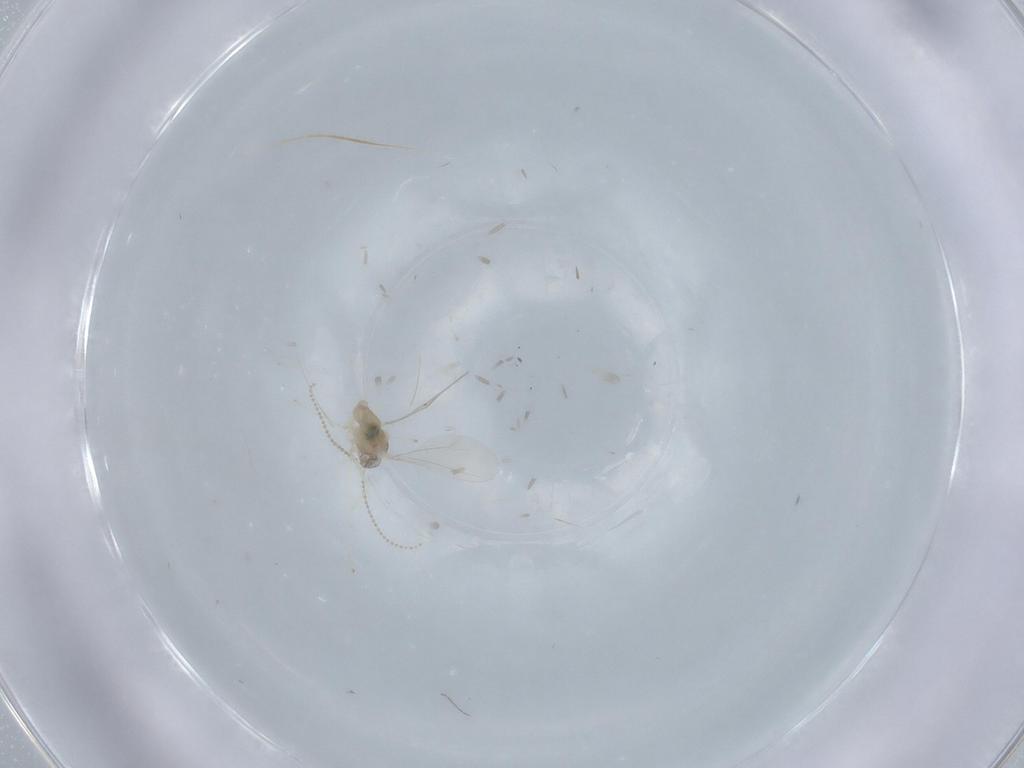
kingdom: Animalia
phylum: Arthropoda
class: Insecta
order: Diptera
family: Cecidomyiidae
